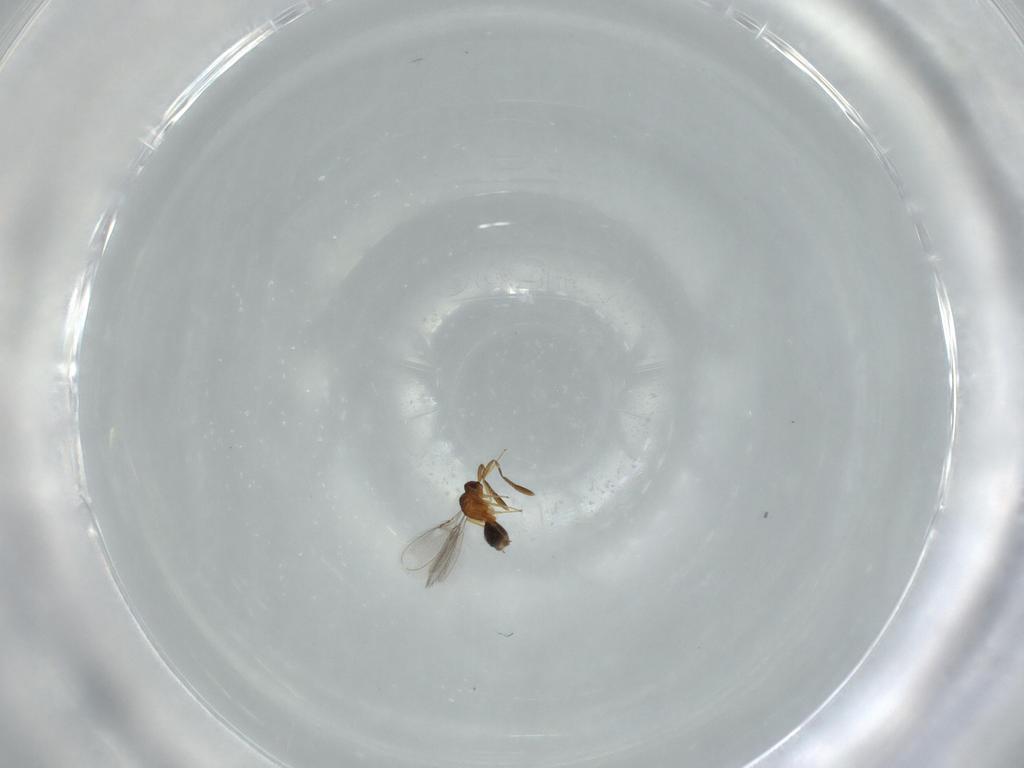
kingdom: Animalia
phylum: Arthropoda
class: Insecta
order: Hymenoptera
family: Mymaridae
